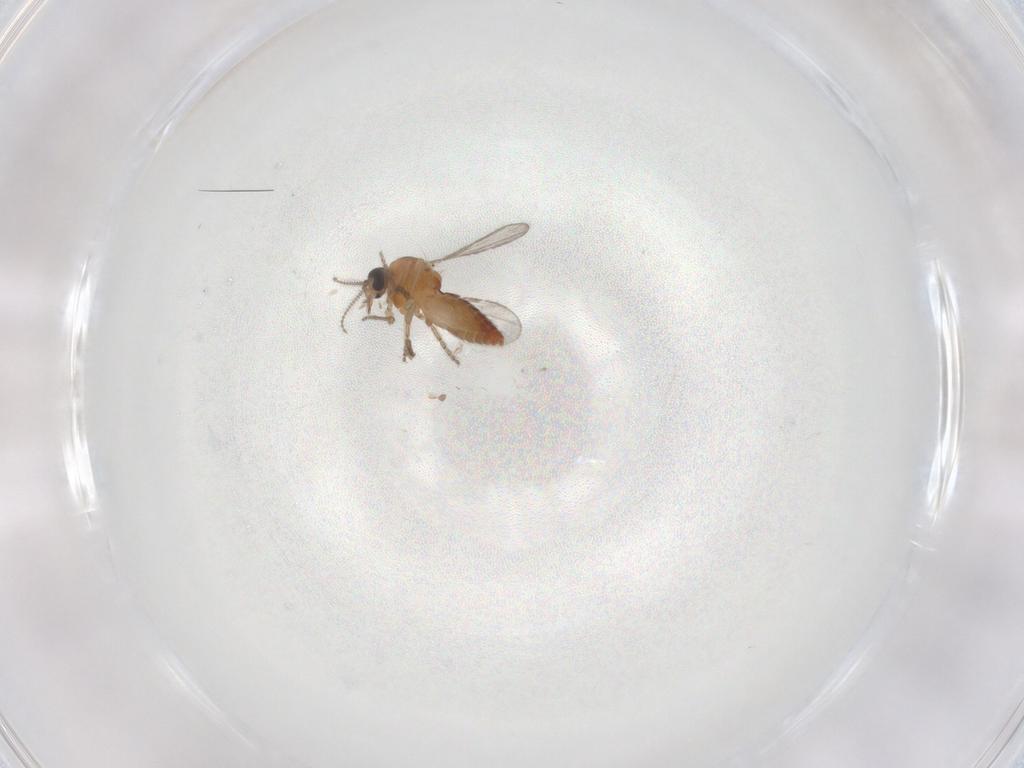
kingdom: Animalia
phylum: Arthropoda
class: Insecta
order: Diptera
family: Ceratopogonidae
